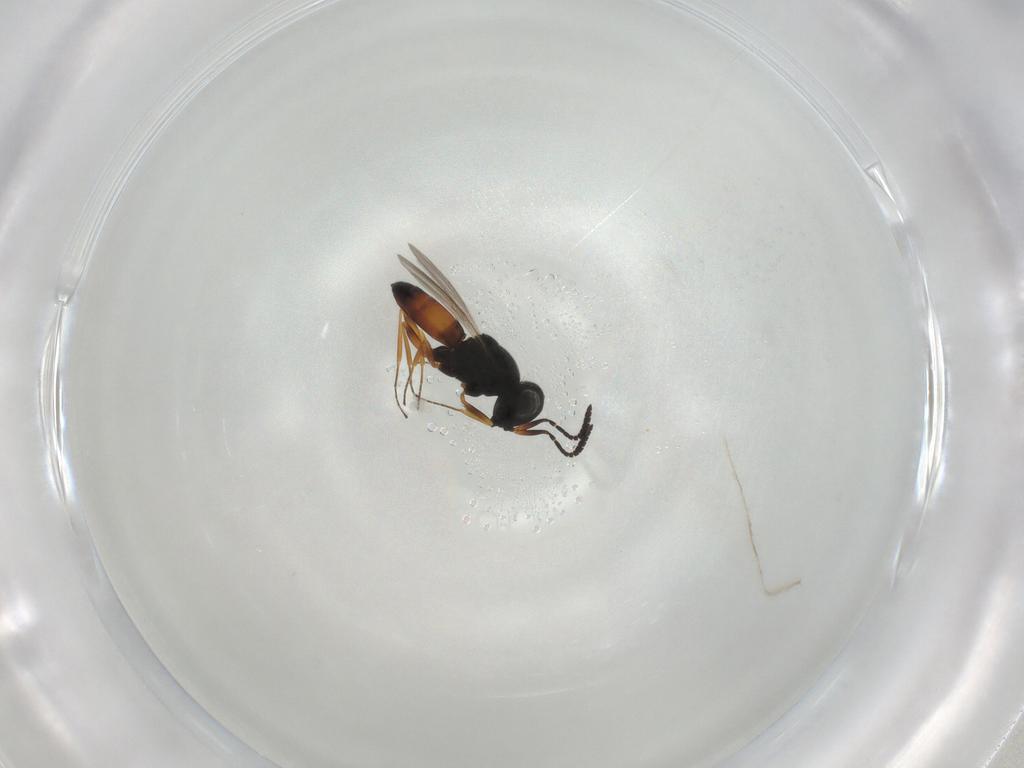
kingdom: Animalia
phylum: Arthropoda
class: Insecta
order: Hymenoptera
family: Scelionidae
